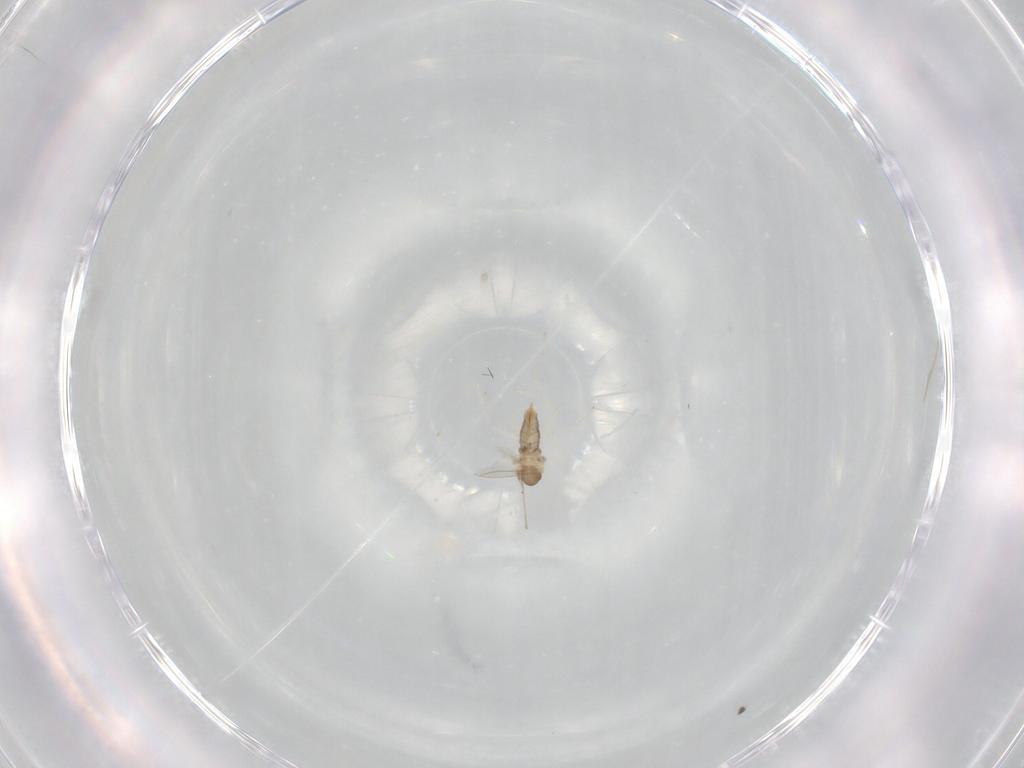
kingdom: Animalia
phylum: Arthropoda
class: Insecta
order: Diptera
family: Cecidomyiidae
